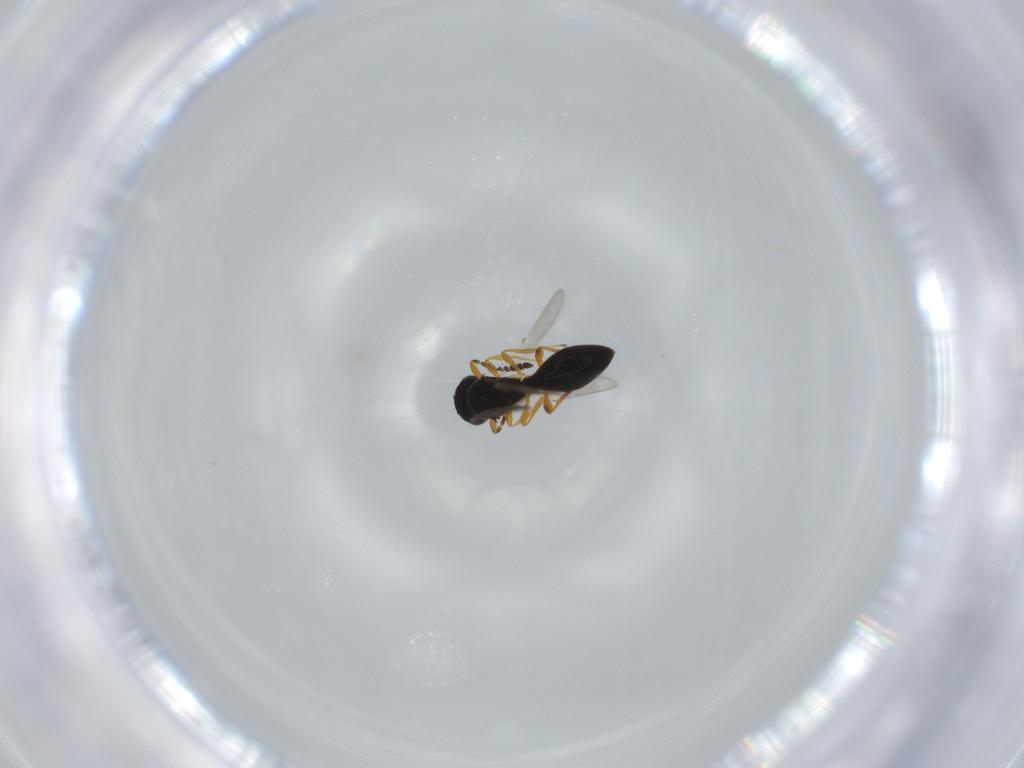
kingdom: Animalia
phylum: Arthropoda
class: Insecta
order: Hymenoptera
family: Platygastridae
